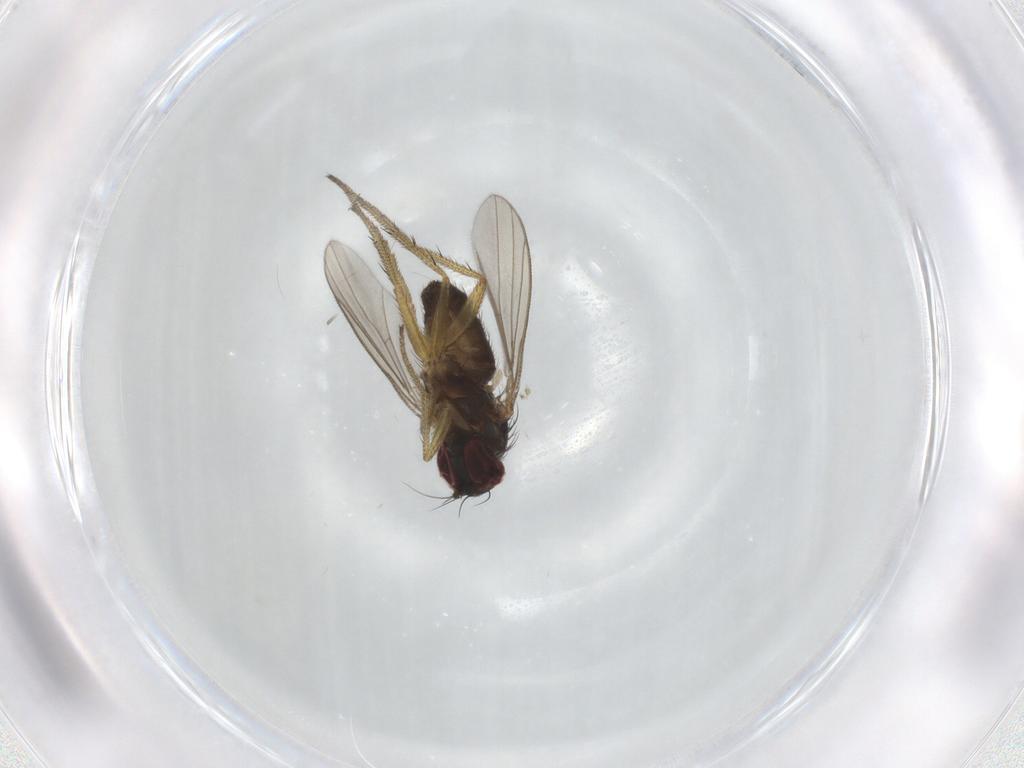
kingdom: Animalia
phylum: Arthropoda
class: Insecta
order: Diptera
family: Dolichopodidae
